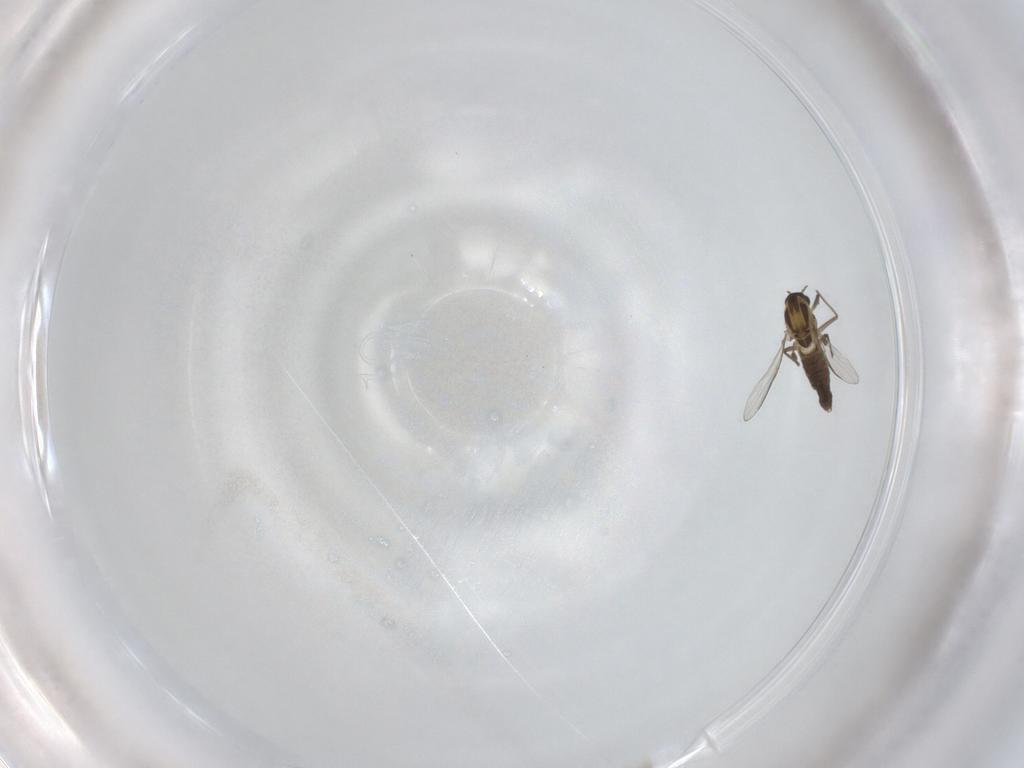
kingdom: Animalia
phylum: Arthropoda
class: Insecta
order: Diptera
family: Chironomidae
